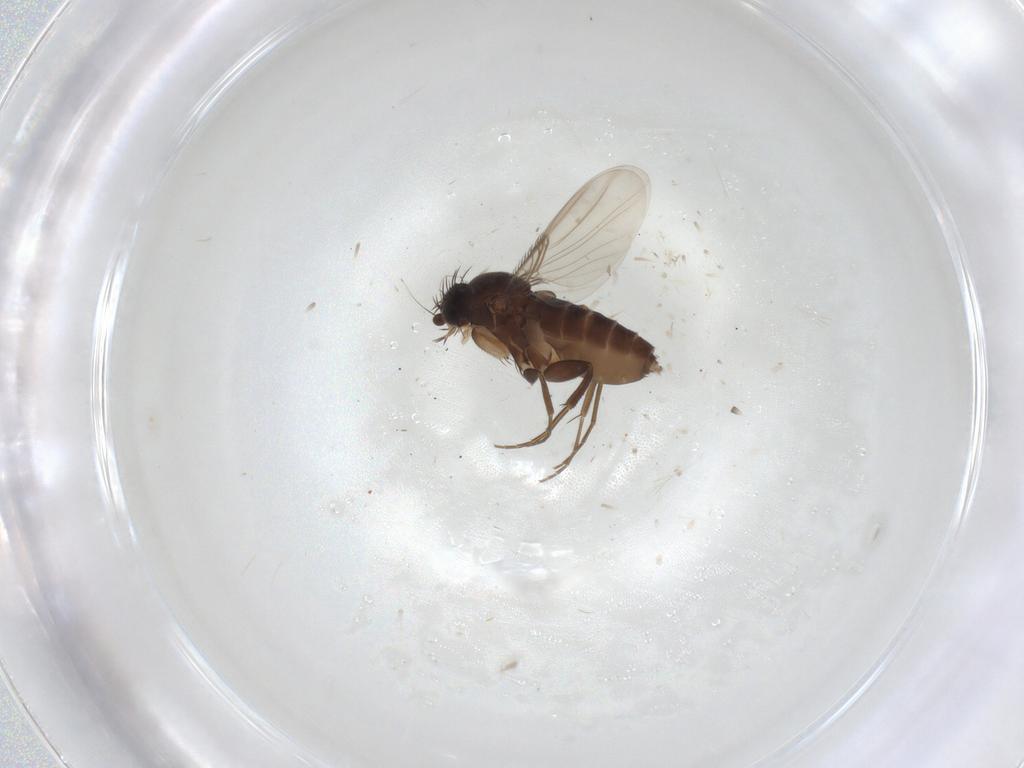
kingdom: Animalia
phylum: Arthropoda
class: Insecta
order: Diptera
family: Phoridae
